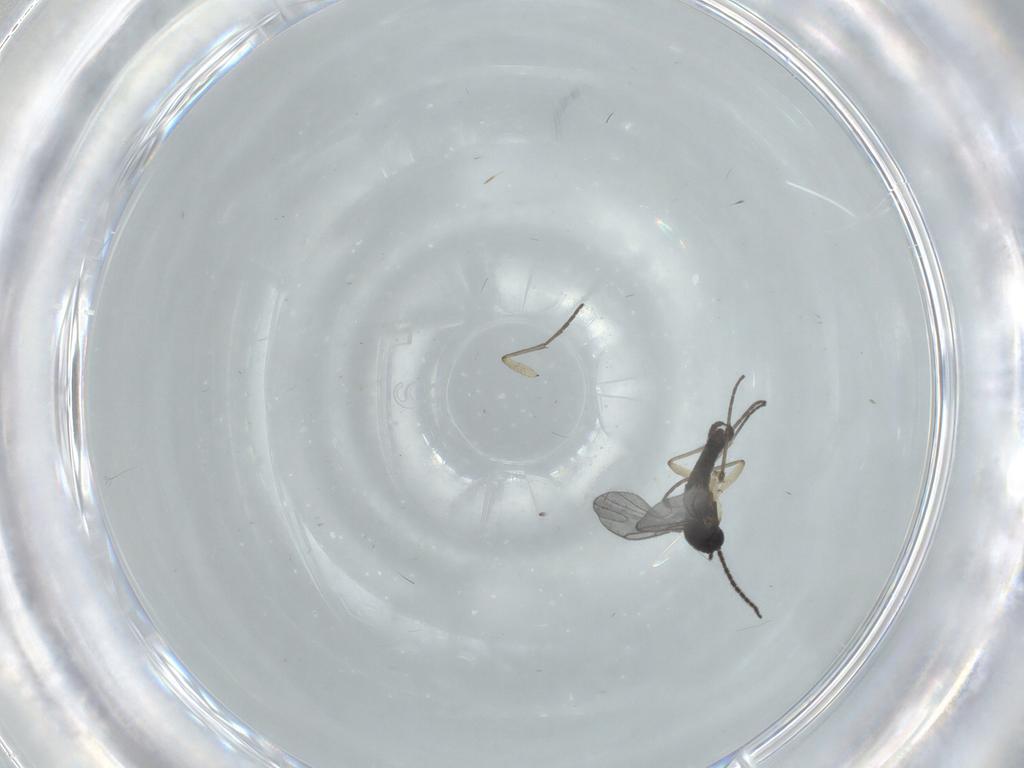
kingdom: Animalia
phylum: Arthropoda
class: Insecta
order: Diptera
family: Sciaridae
